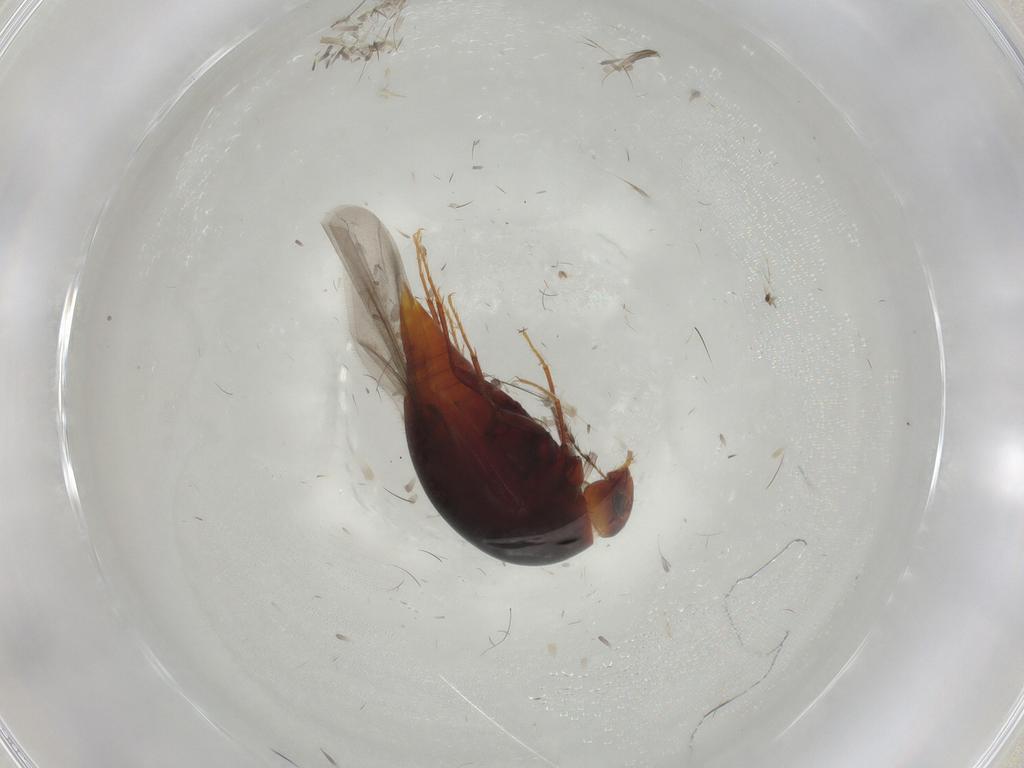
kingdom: Animalia
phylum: Arthropoda
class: Insecta
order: Coleoptera
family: Staphylinidae
